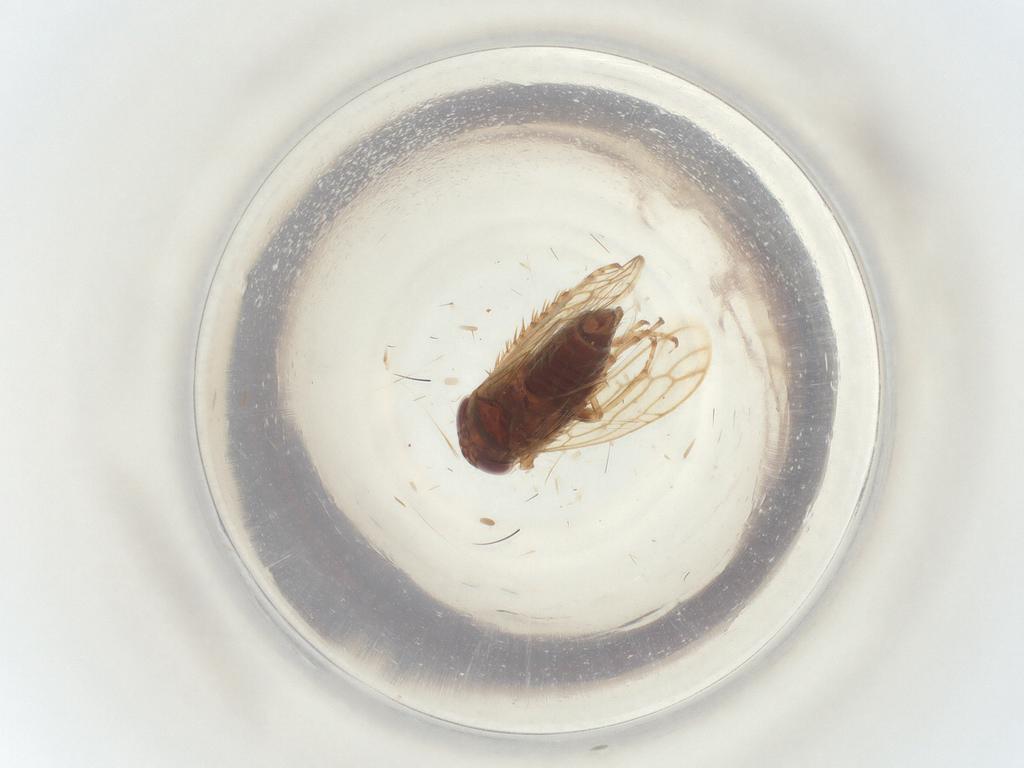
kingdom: Animalia
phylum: Arthropoda
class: Insecta
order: Hemiptera
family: Cicadellidae
